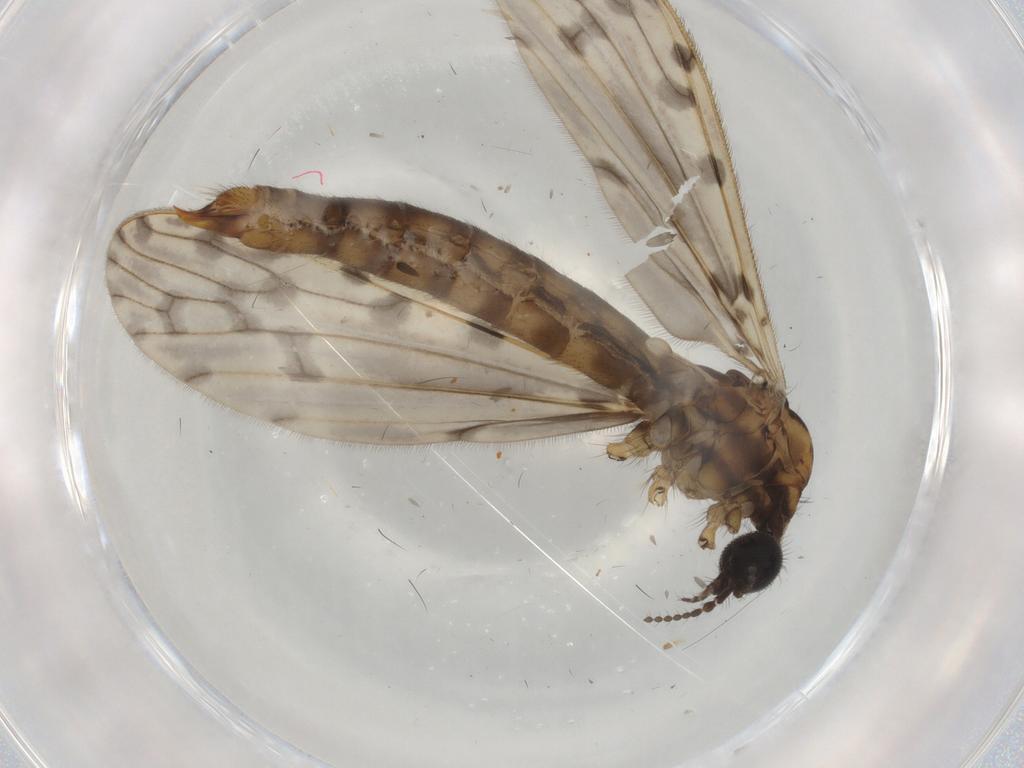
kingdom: Animalia
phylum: Arthropoda
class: Insecta
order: Diptera
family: Limoniidae
